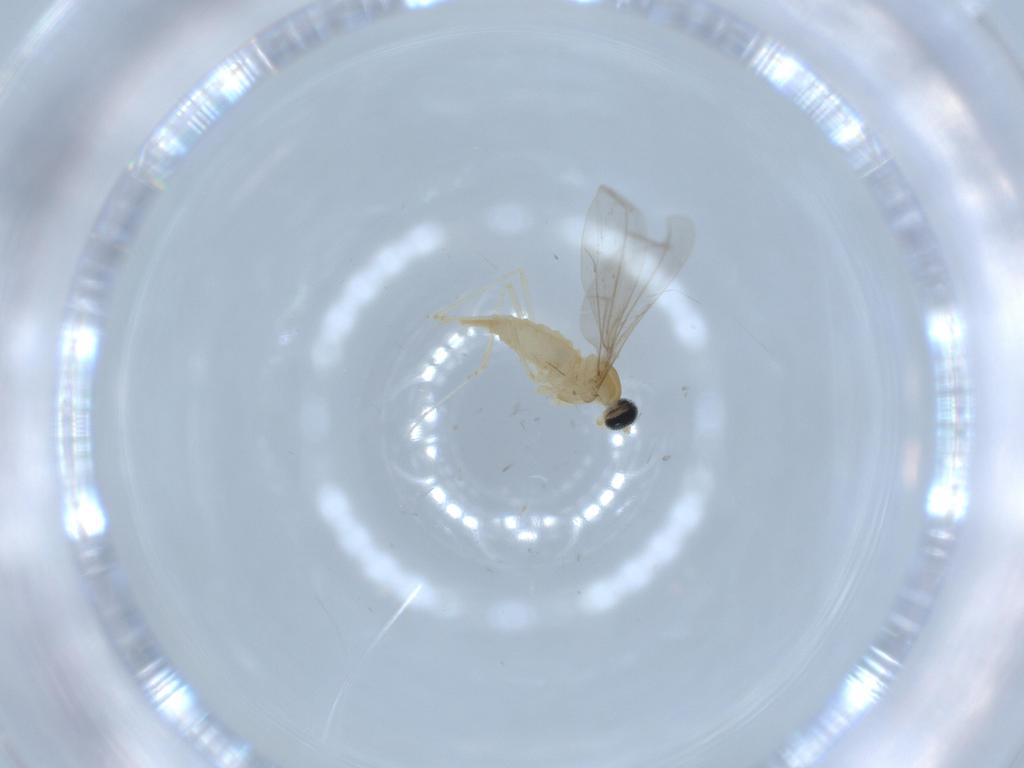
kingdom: Animalia
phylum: Arthropoda
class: Insecta
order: Diptera
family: Cecidomyiidae
